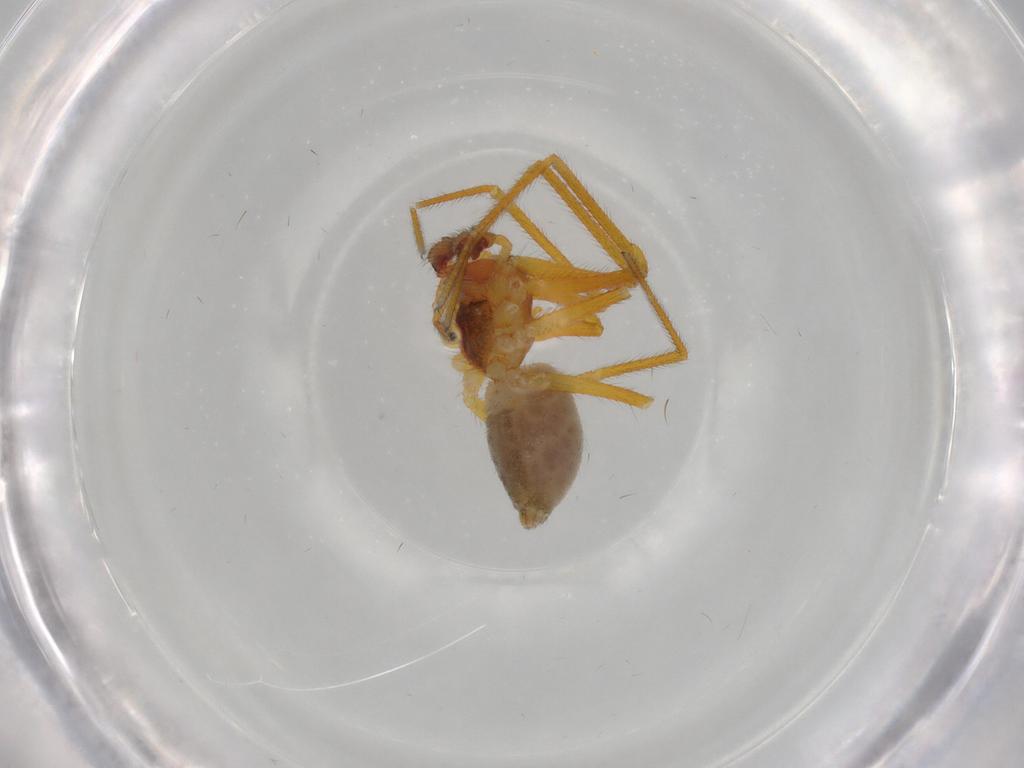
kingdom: Animalia
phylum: Arthropoda
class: Arachnida
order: Araneae
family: Linyphiidae
